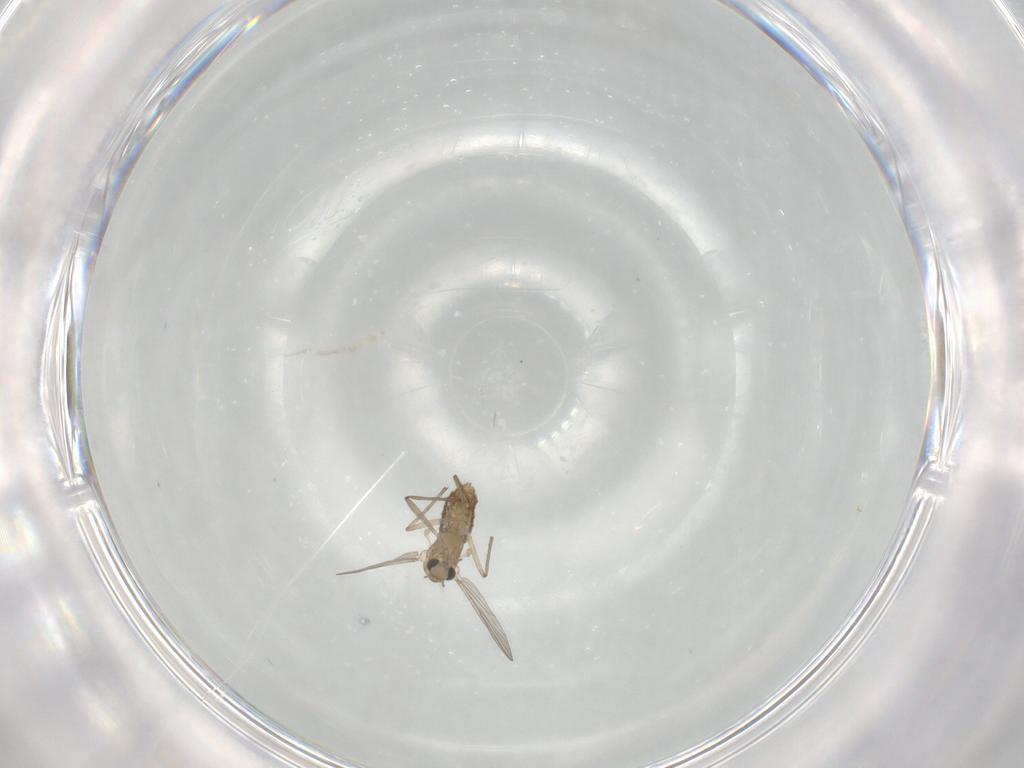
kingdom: Animalia
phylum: Arthropoda
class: Insecta
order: Diptera
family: Chironomidae
